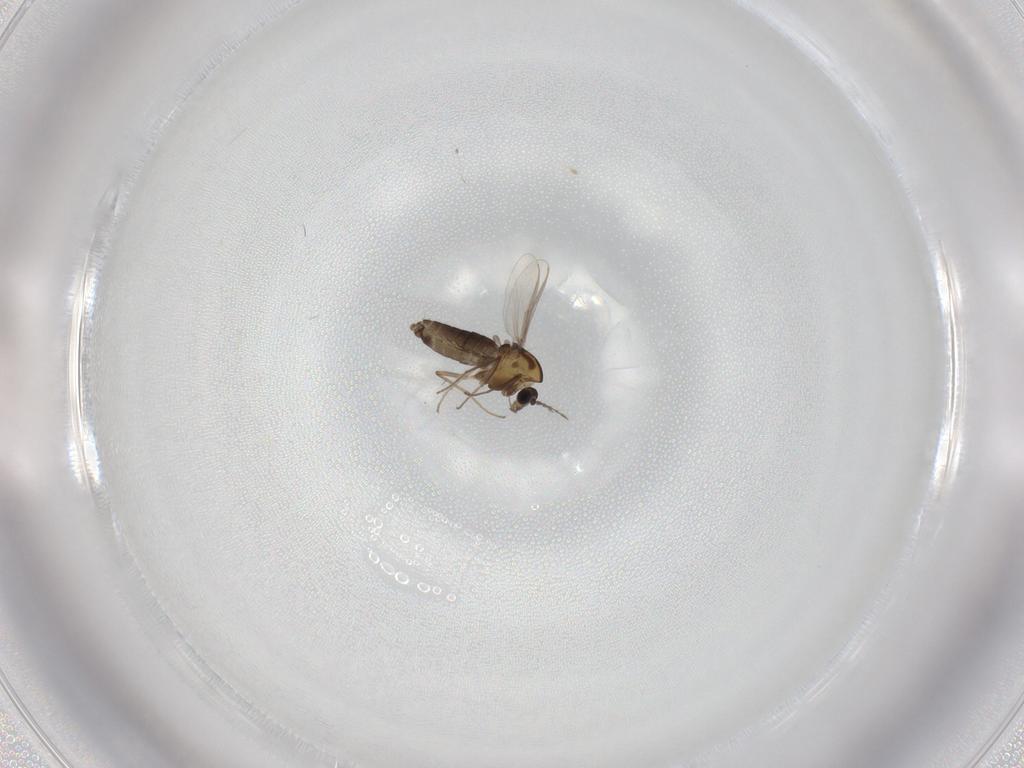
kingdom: Animalia
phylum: Arthropoda
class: Insecta
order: Diptera
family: Chironomidae
